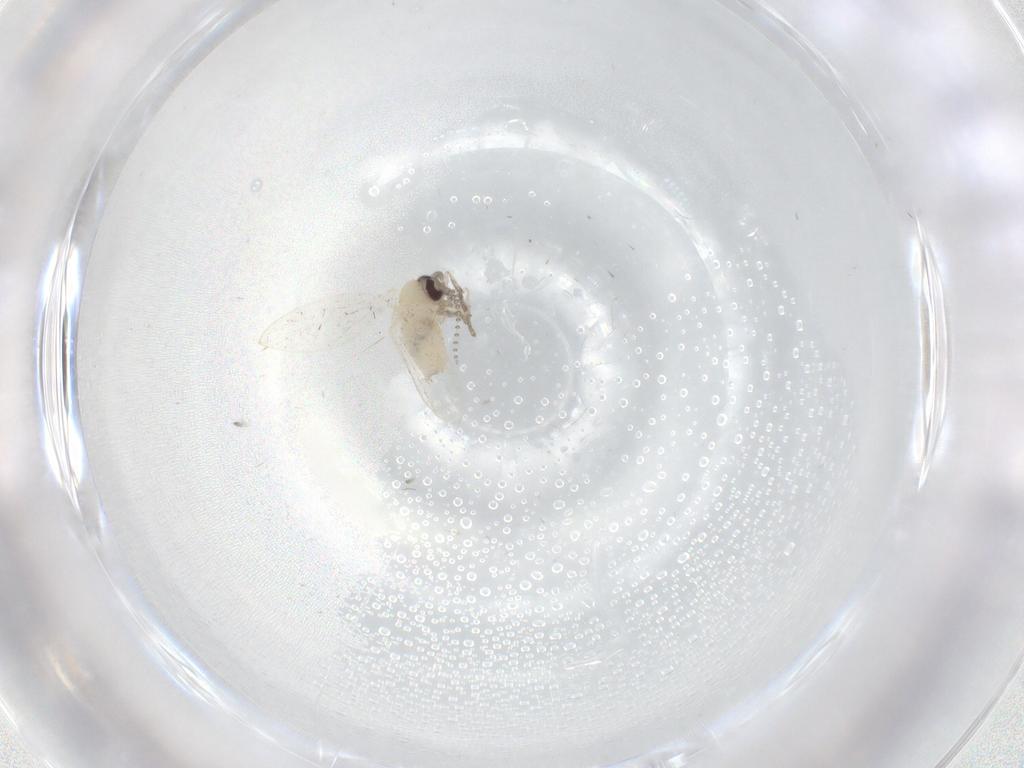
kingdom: Animalia
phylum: Arthropoda
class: Insecta
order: Diptera
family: Psychodidae
